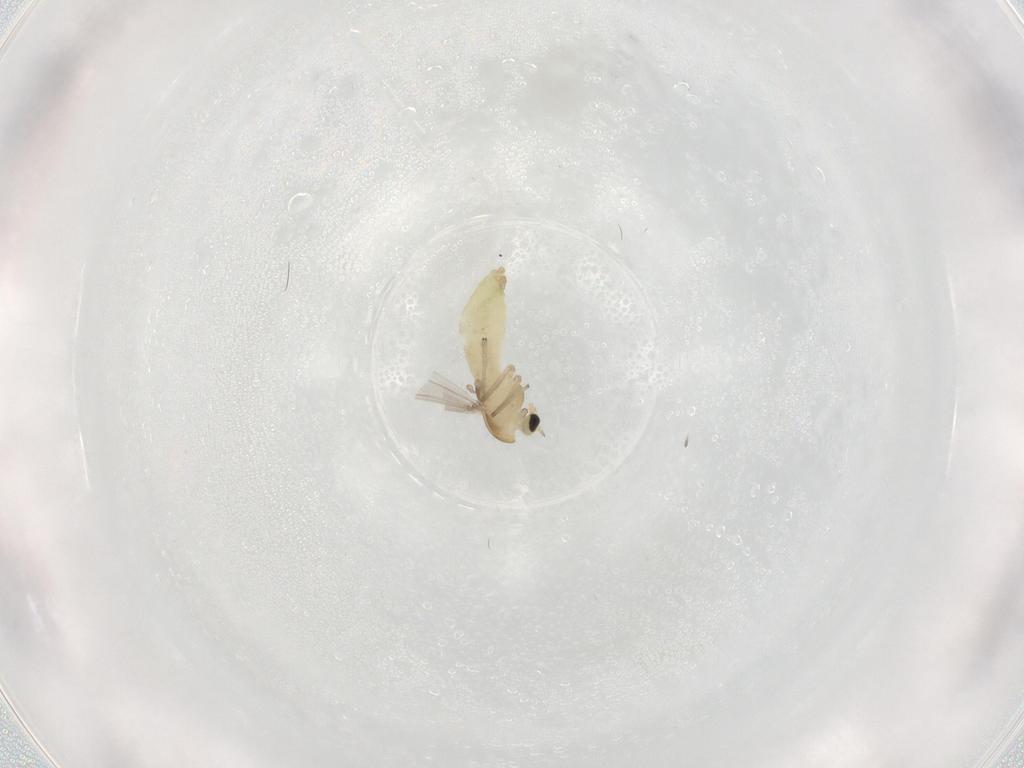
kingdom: Animalia
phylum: Arthropoda
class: Insecta
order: Diptera
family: Chironomidae
